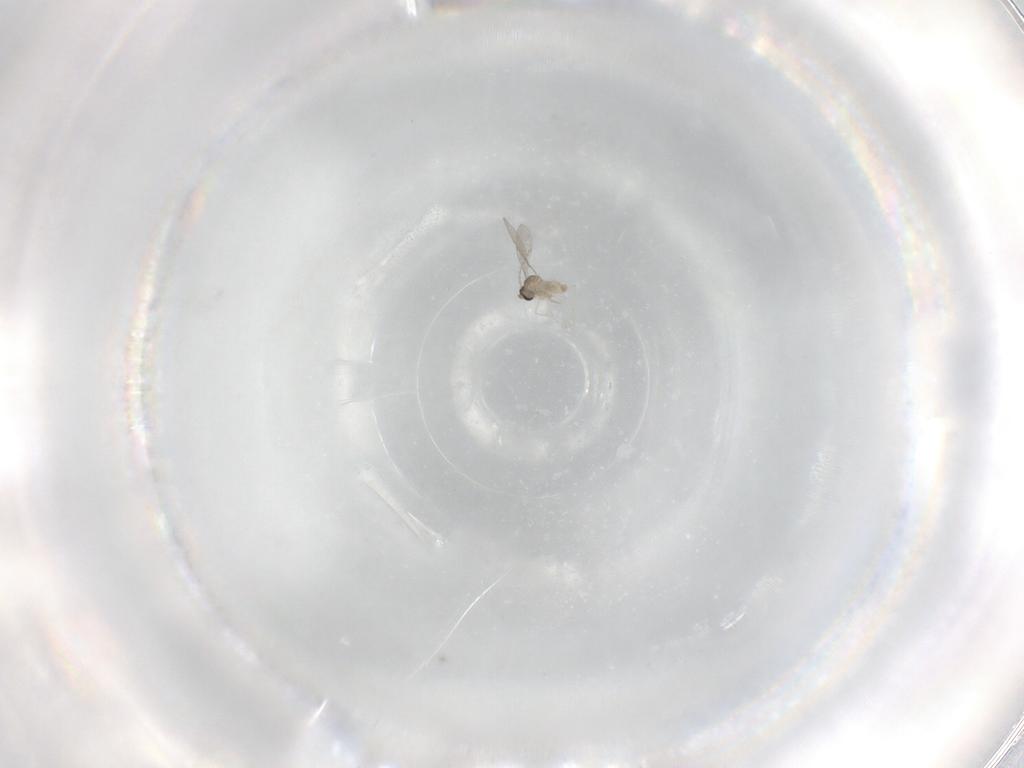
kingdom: Animalia
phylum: Arthropoda
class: Insecta
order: Diptera
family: Cecidomyiidae
